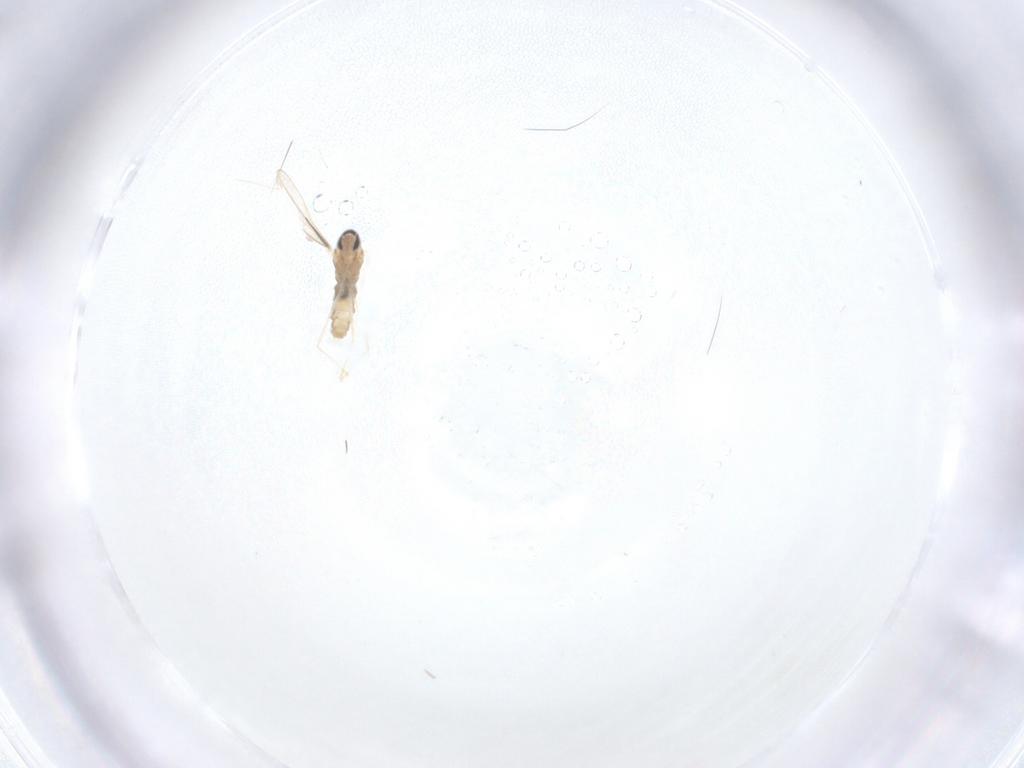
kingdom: Animalia
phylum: Arthropoda
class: Insecta
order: Diptera
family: Cecidomyiidae
